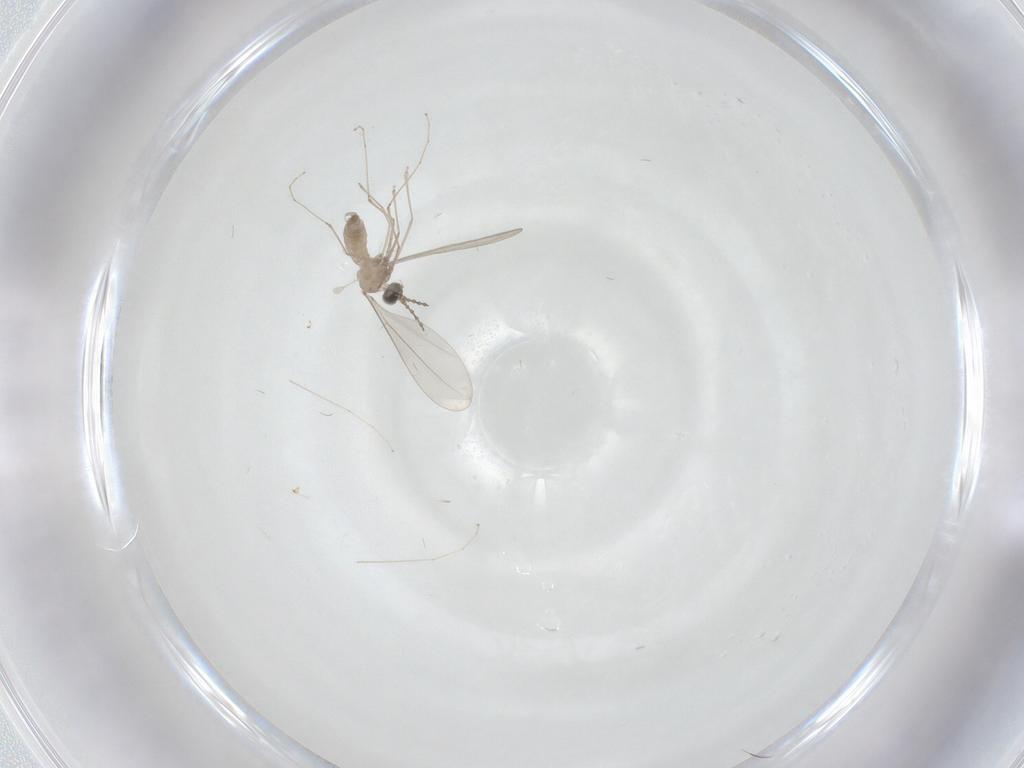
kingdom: Animalia
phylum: Arthropoda
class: Insecta
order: Diptera
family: Cecidomyiidae
